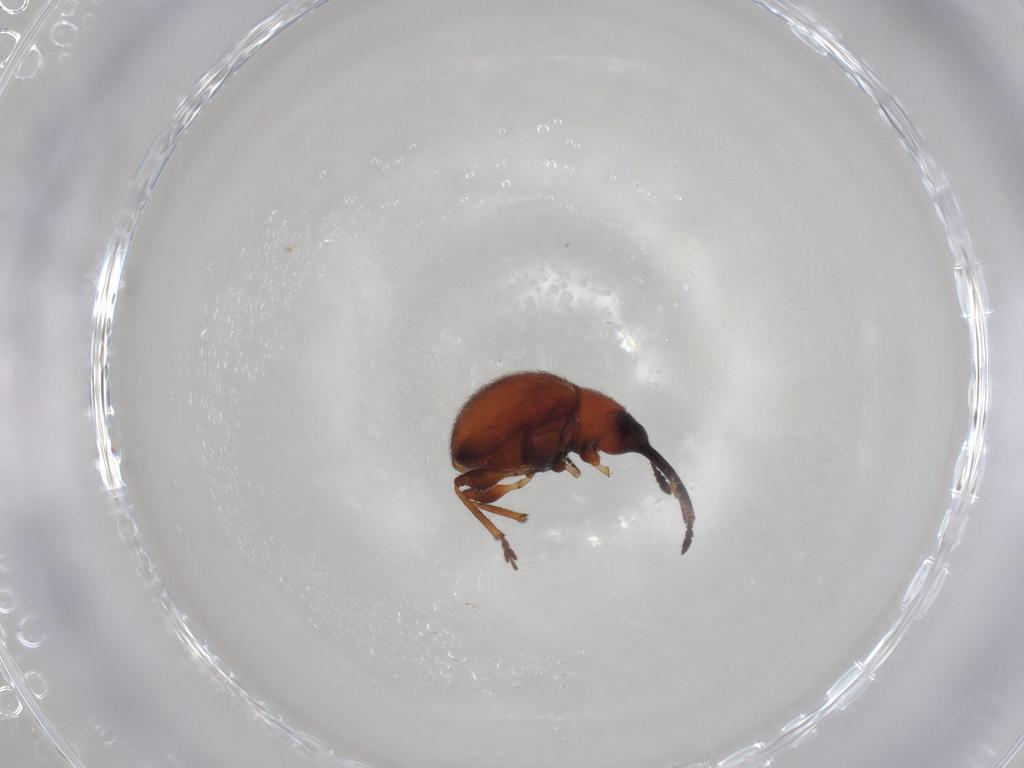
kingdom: Animalia
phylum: Arthropoda
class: Insecta
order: Coleoptera
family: Brentidae
